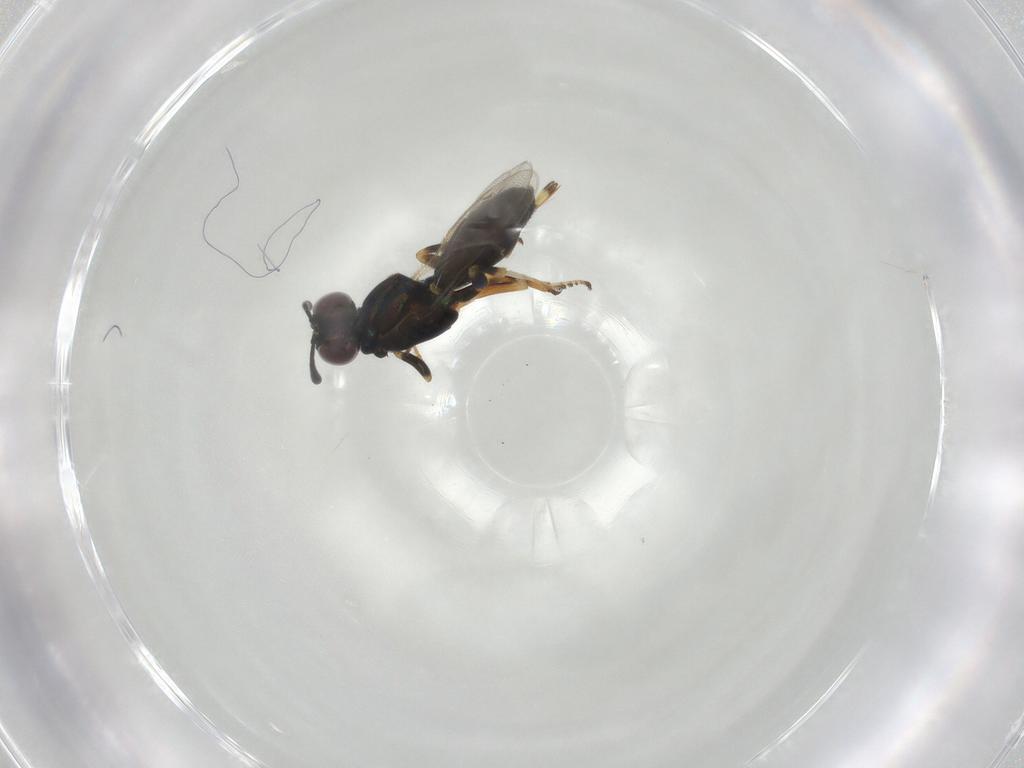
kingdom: Animalia
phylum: Arthropoda
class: Insecta
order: Hymenoptera
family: Eupelmidae
